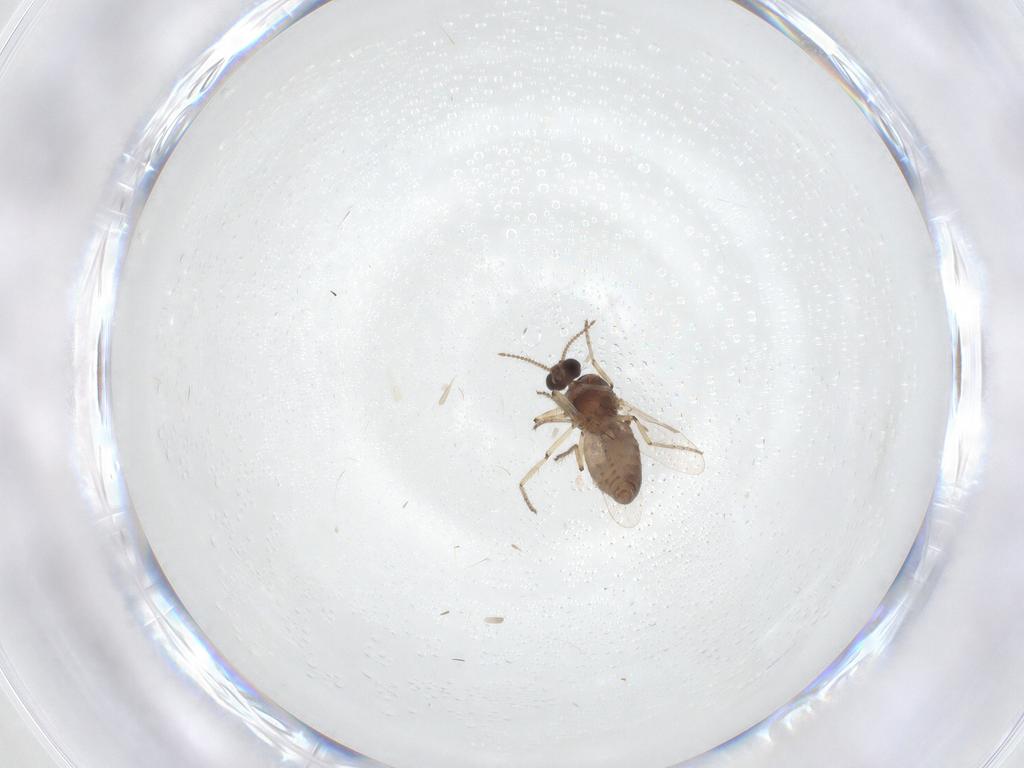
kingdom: Animalia
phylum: Arthropoda
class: Insecta
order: Diptera
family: Ceratopogonidae
